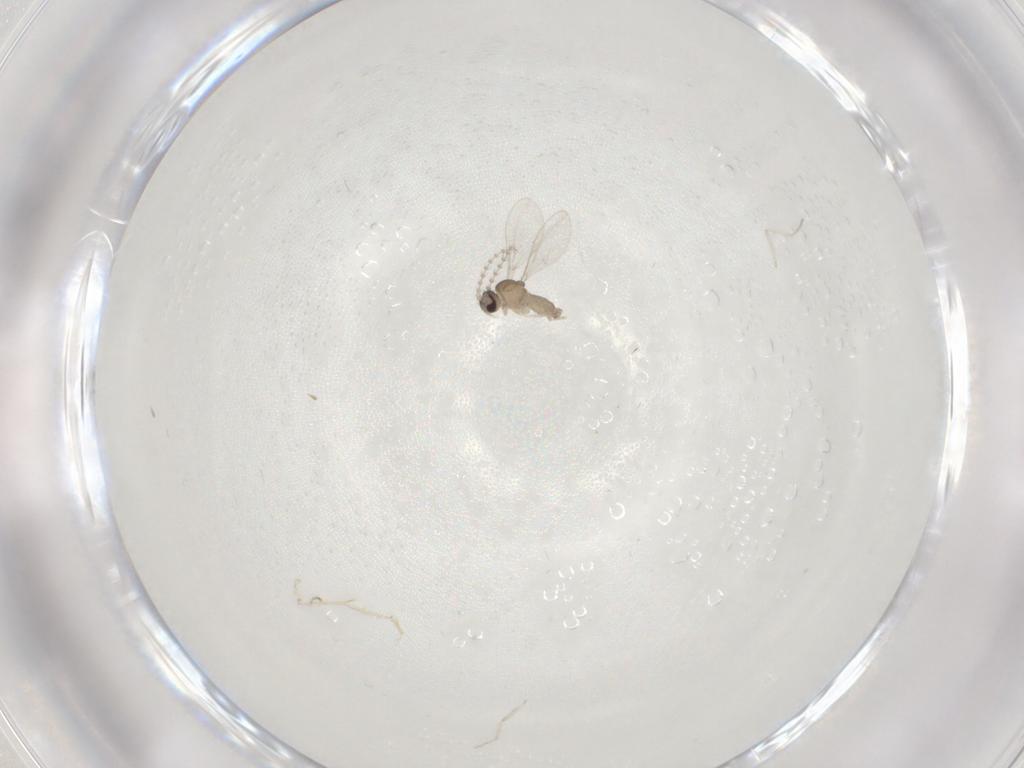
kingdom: Animalia
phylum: Arthropoda
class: Insecta
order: Diptera
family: Cecidomyiidae
